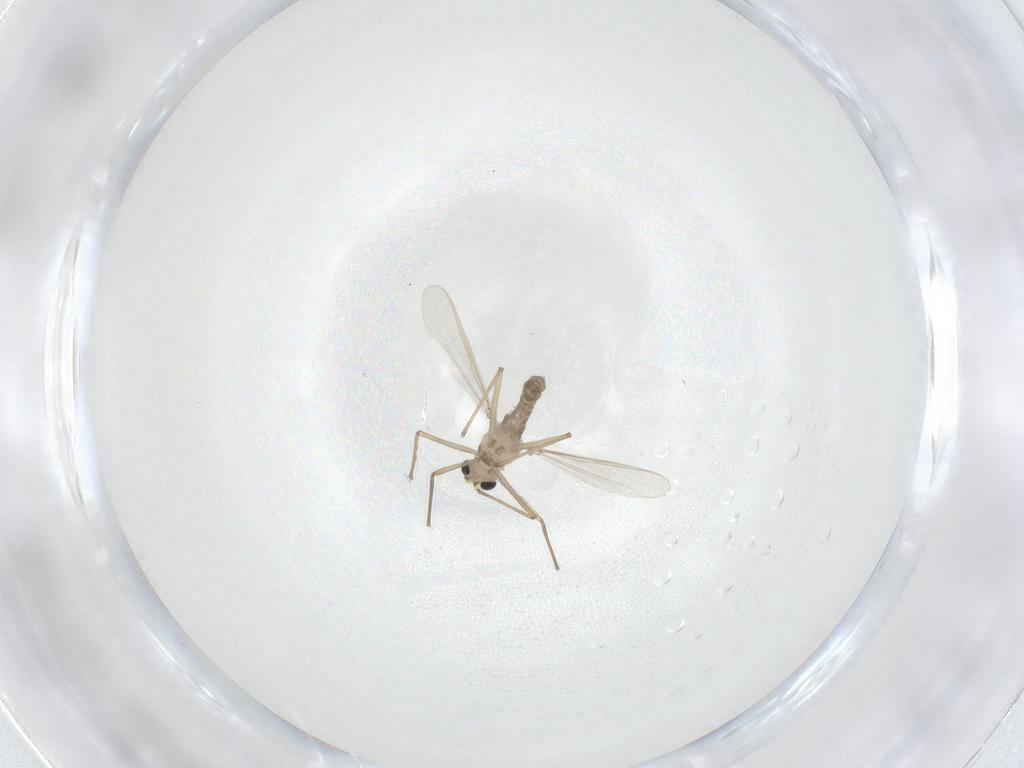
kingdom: Animalia
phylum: Arthropoda
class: Insecta
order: Diptera
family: Chironomidae
